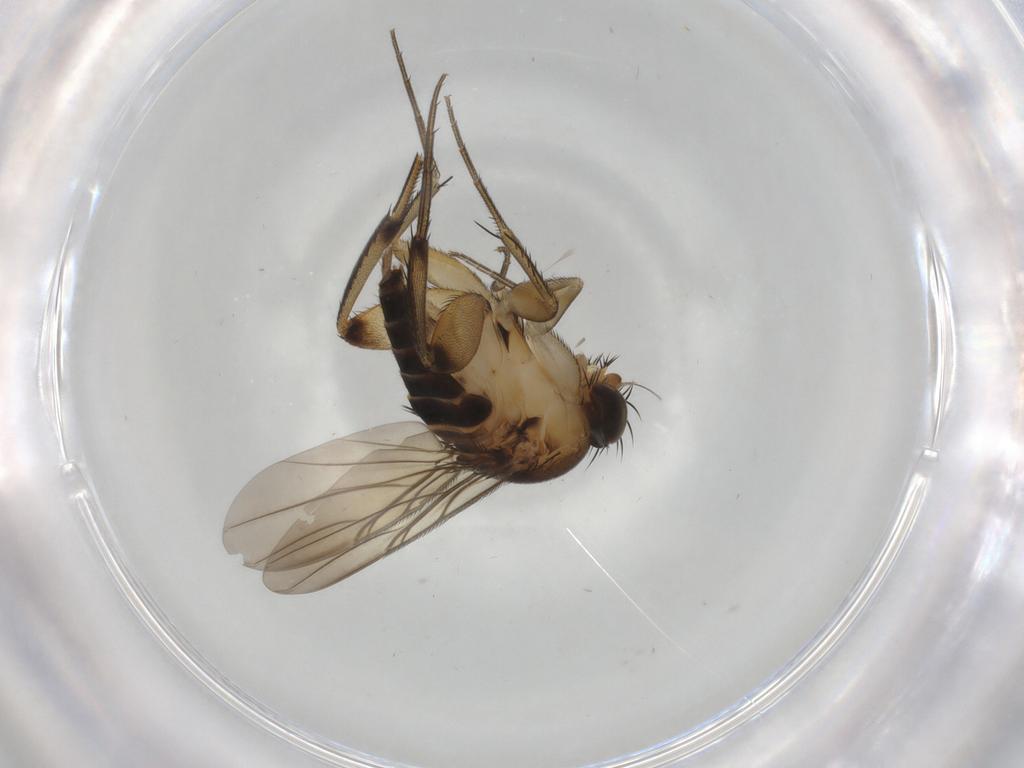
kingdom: Animalia
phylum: Arthropoda
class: Insecta
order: Diptera
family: Phoridae
